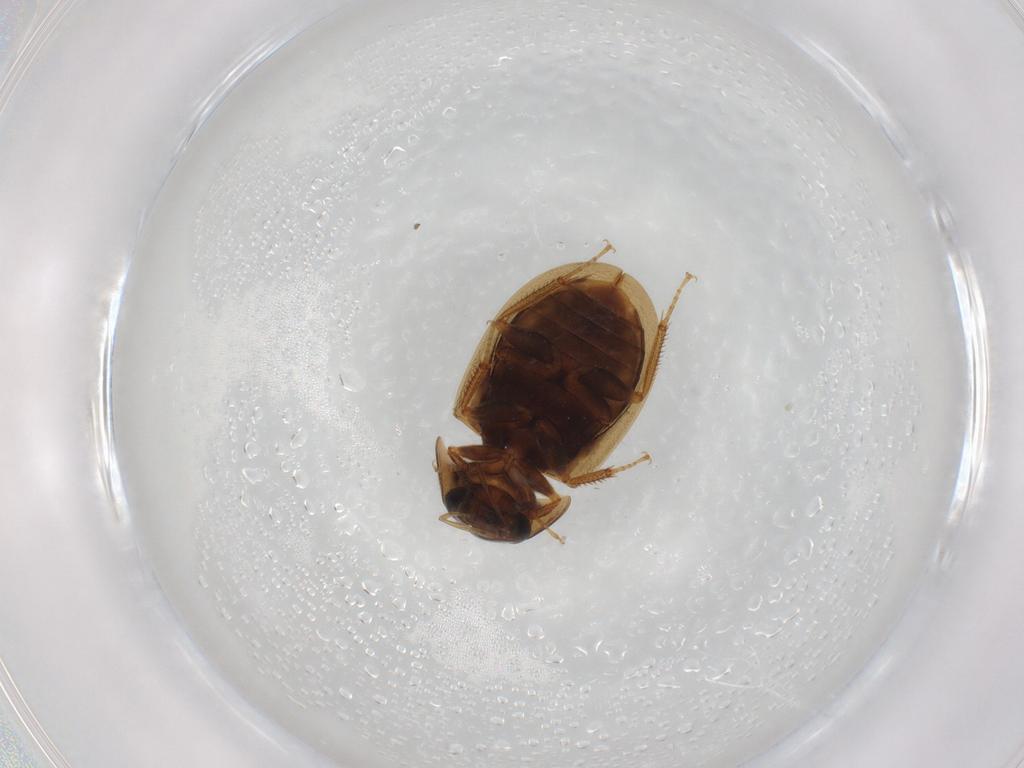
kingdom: Animalia
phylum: Arthropoda
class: Insecta
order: Coleoptera
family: Hydrophilidae
